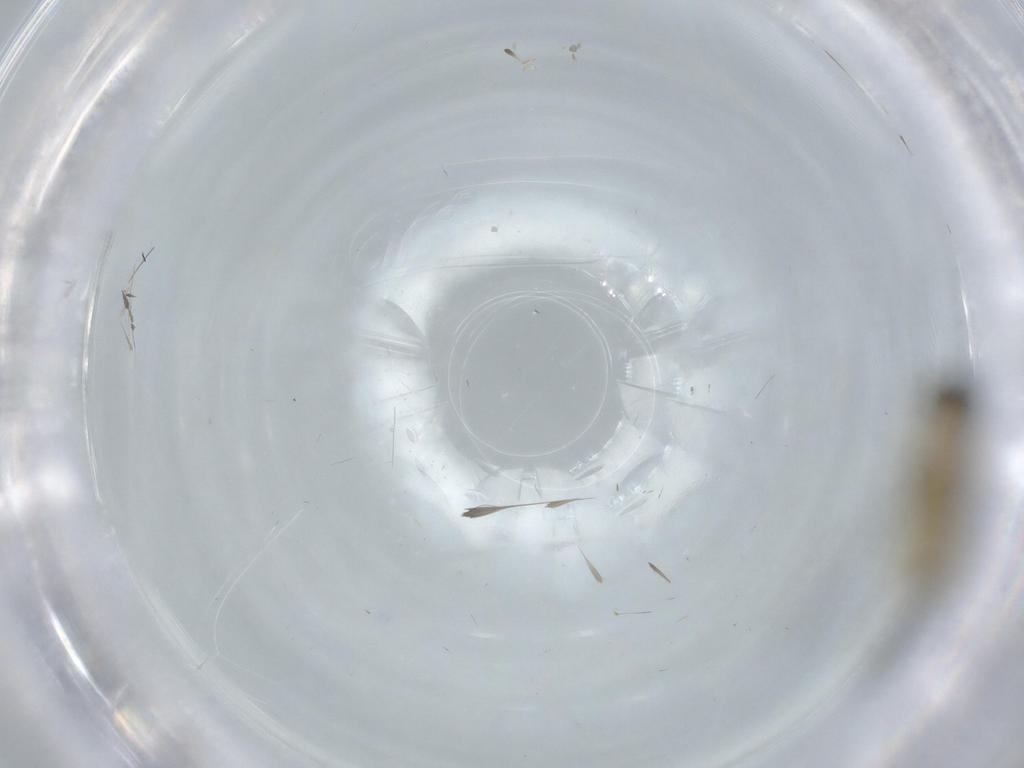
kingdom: Animalia
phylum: Arthropoda
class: Insecta
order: Diptera
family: Sciaridae
